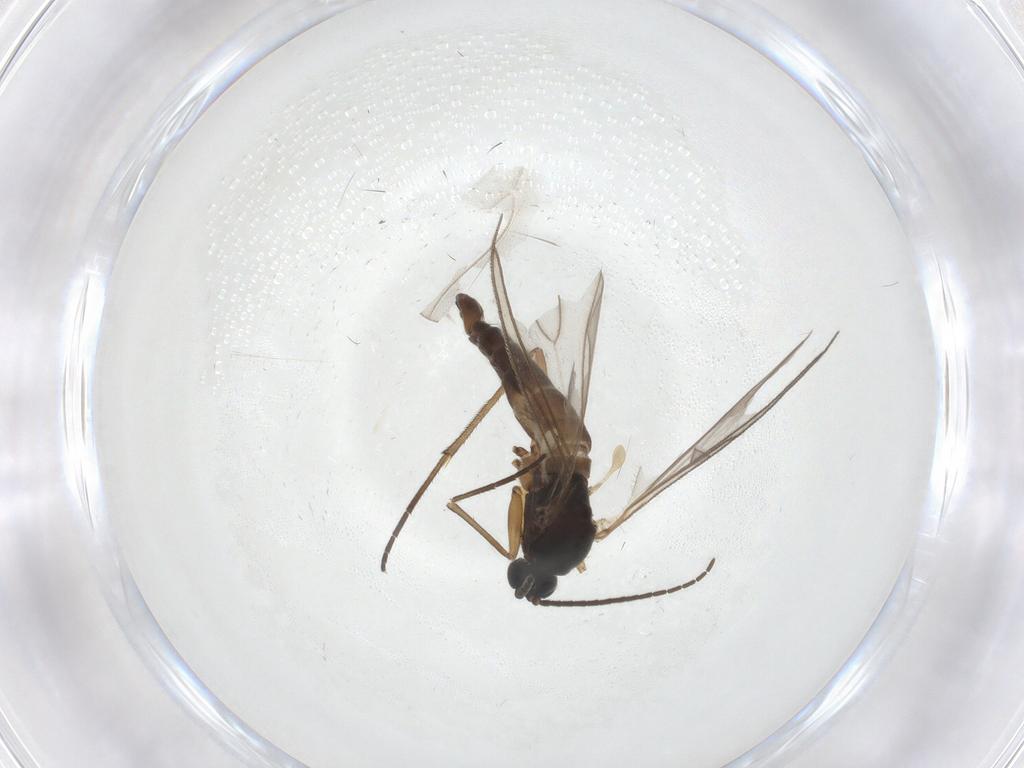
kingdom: Animalia
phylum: Arthropoda
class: Insecta
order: Diptera
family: Sciaridae
